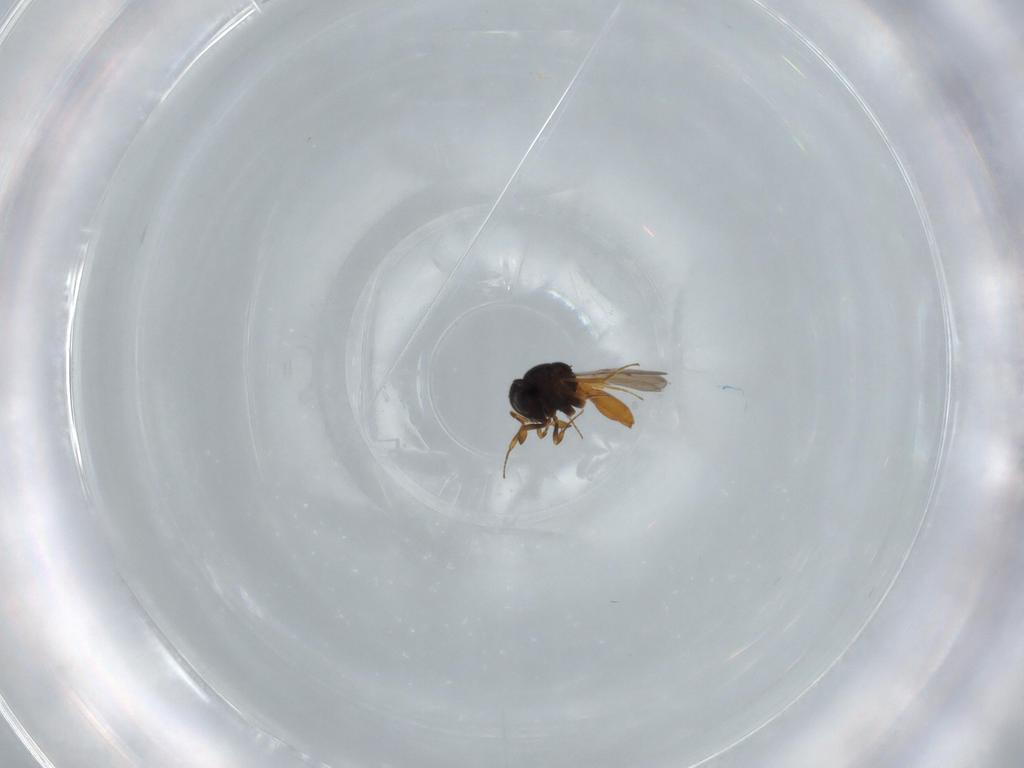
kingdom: Animalia
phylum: Arthropoda
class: Insecta
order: Hymenoptera
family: Scelionidae
